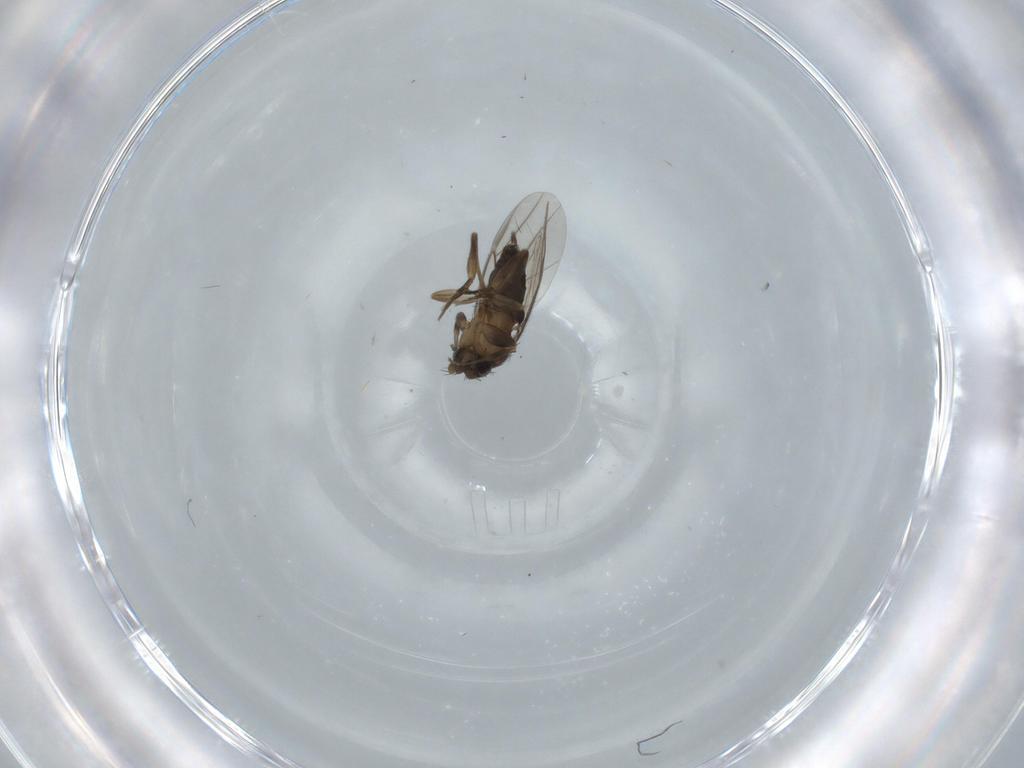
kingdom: Animalia
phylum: Arthropoda
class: Insecta
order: Diptera
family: Phoridae
